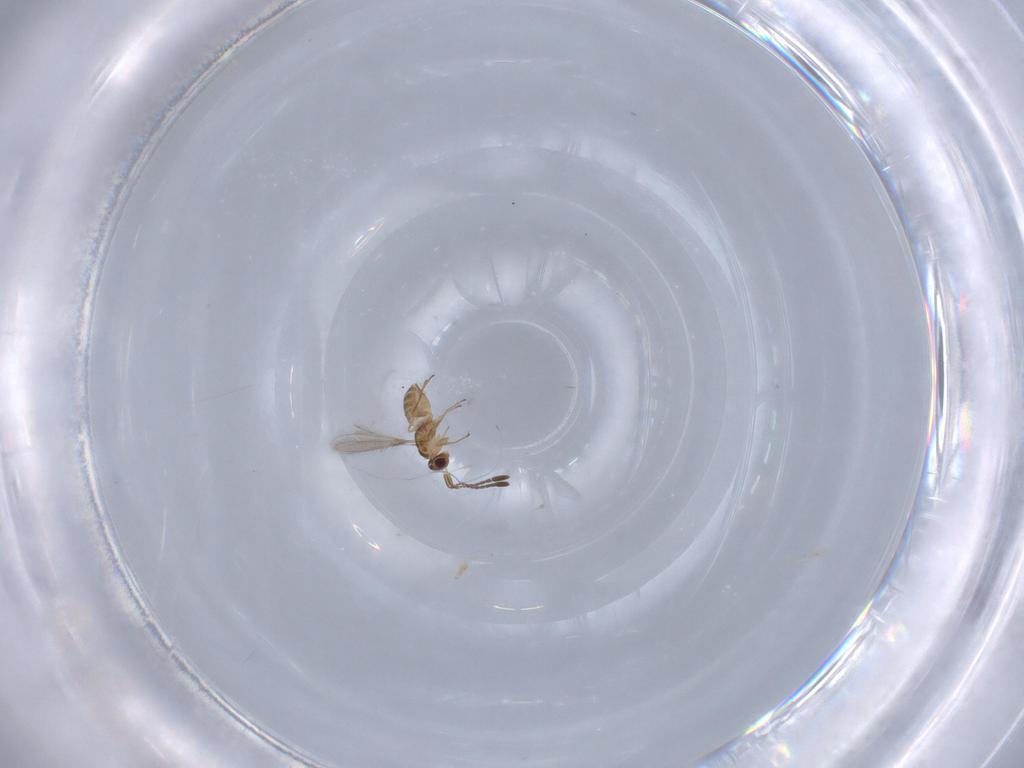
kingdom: Animalia
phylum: Arthropoda
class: Insecta
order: Hymenoptera
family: Mymaridae
